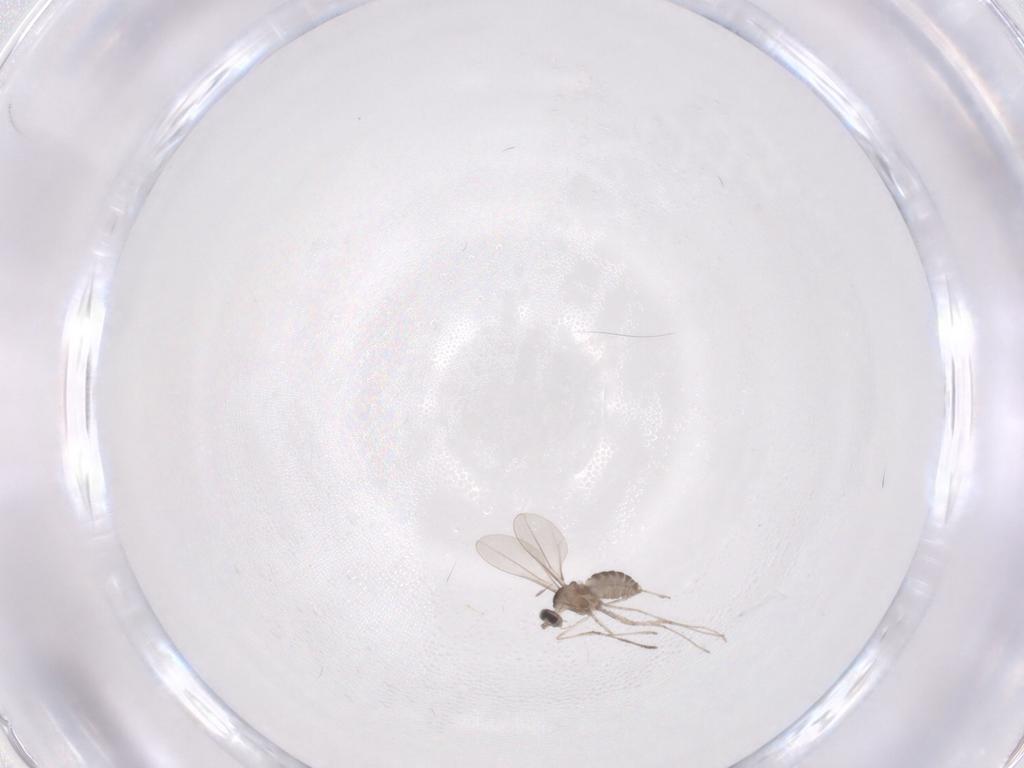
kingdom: Animalia
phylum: Arthropoda
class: Insecta
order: Diptera
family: Cecidomyiidae
